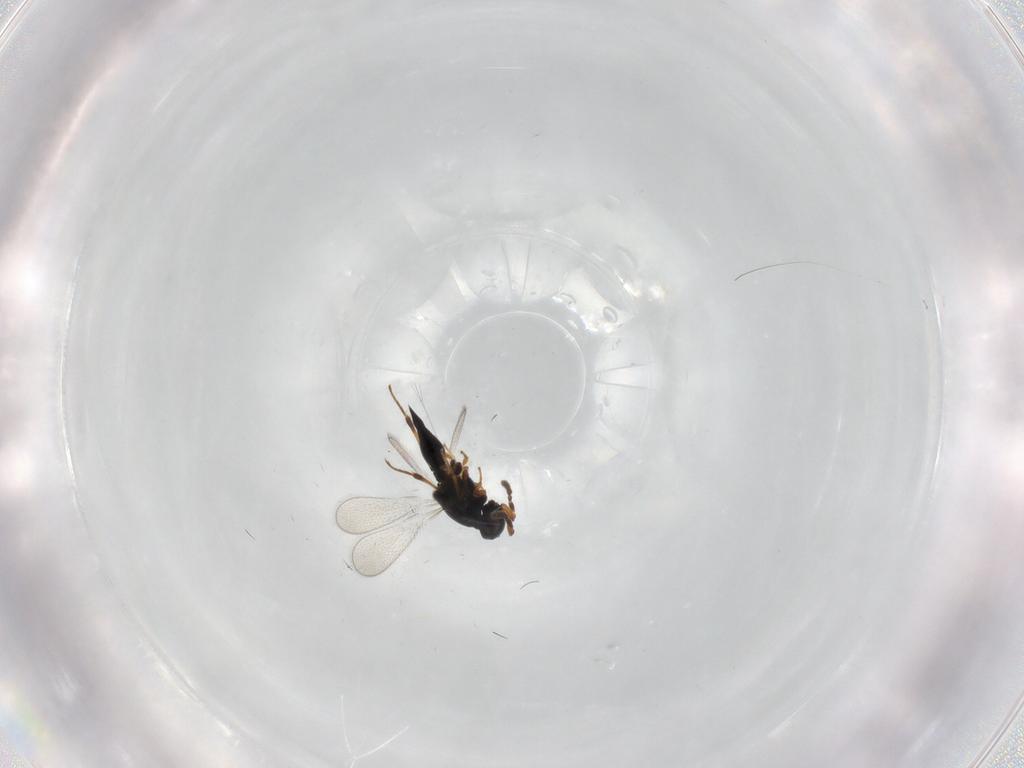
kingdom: Animalia
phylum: Arthropoda
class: Insecta
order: Hymenoptera
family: Platygastridae
